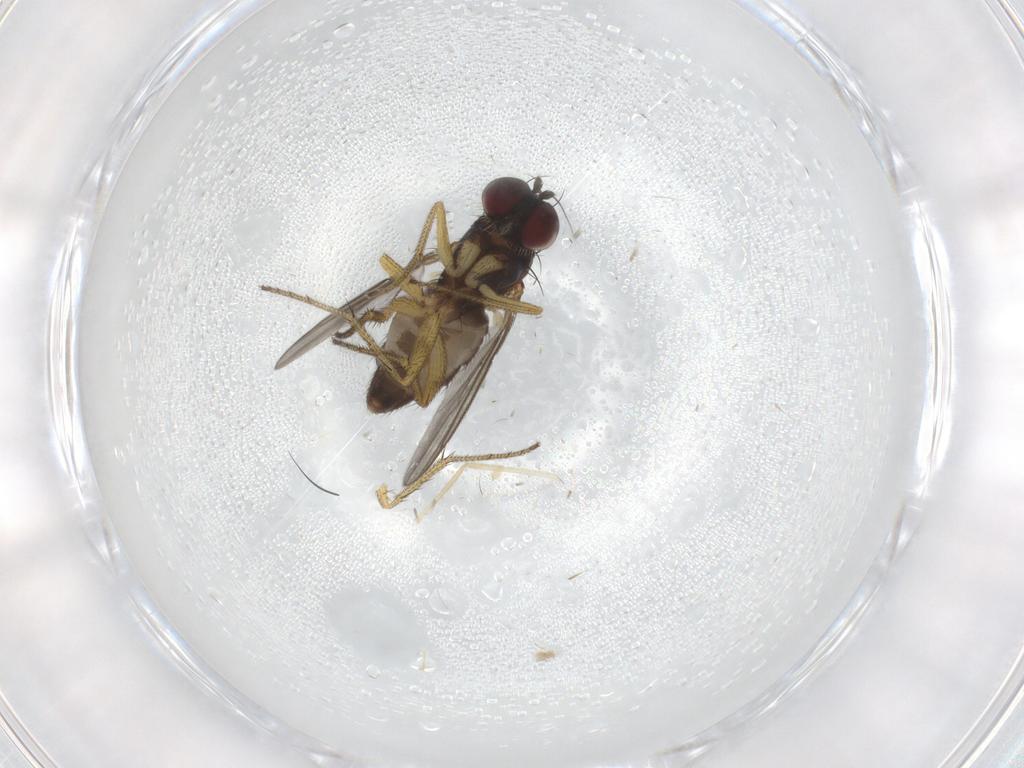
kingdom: Animalia
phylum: Arthropoda
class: Insecta
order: Diptera
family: Dolichopodidae
